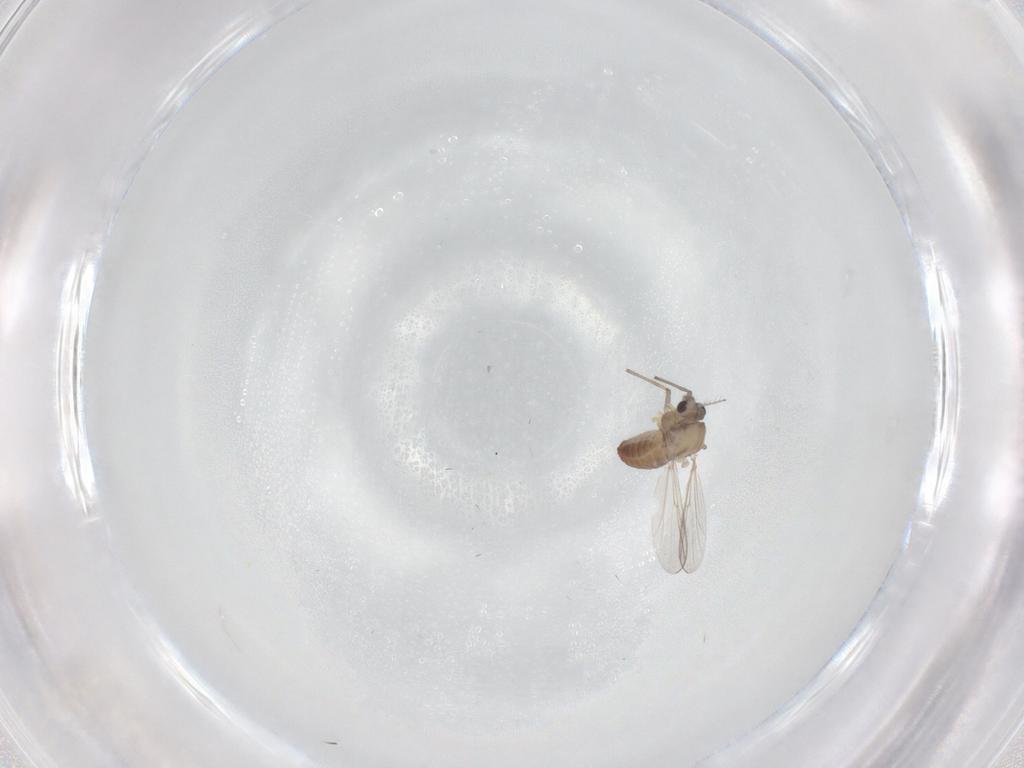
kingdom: Animalia
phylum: Arthropoda
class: Insecta
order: Diptera
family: Chironomidae
